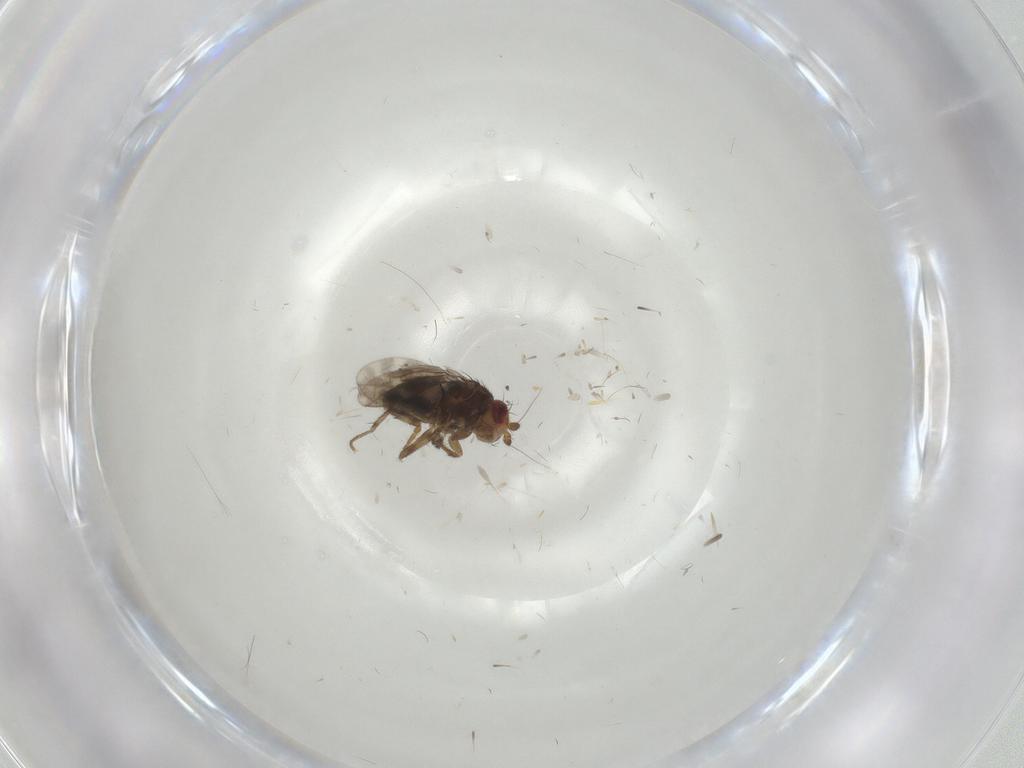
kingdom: Animalia
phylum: Arthropoda
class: Insecta
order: Diptera
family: Sphaeroceridae
